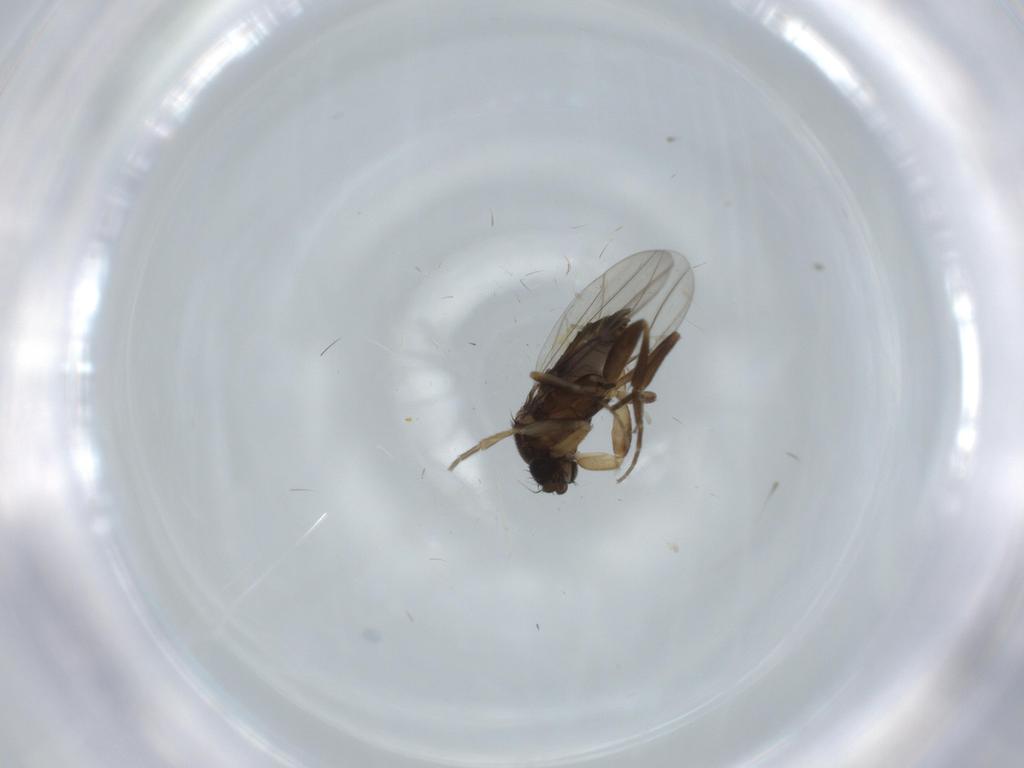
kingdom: Animalia
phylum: Arthropoda
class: Insecta
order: Diptera
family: Phoridae
